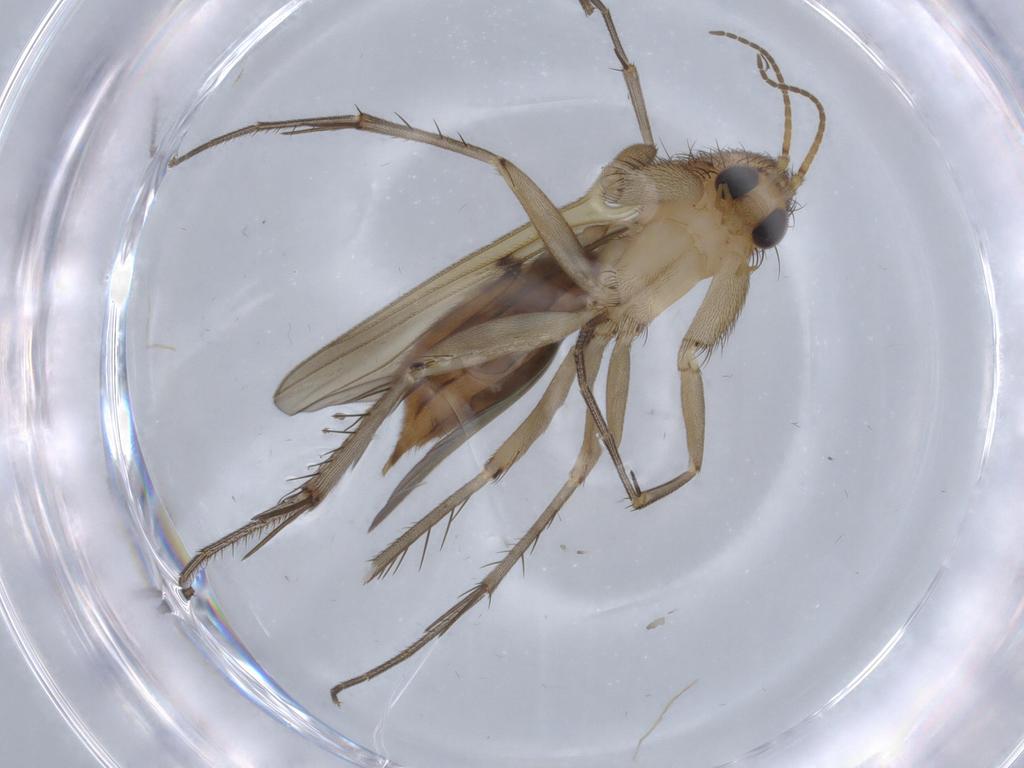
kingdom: Animalia
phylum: Arthropoda
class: Insecta
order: Diptera
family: Mycetophilidae
